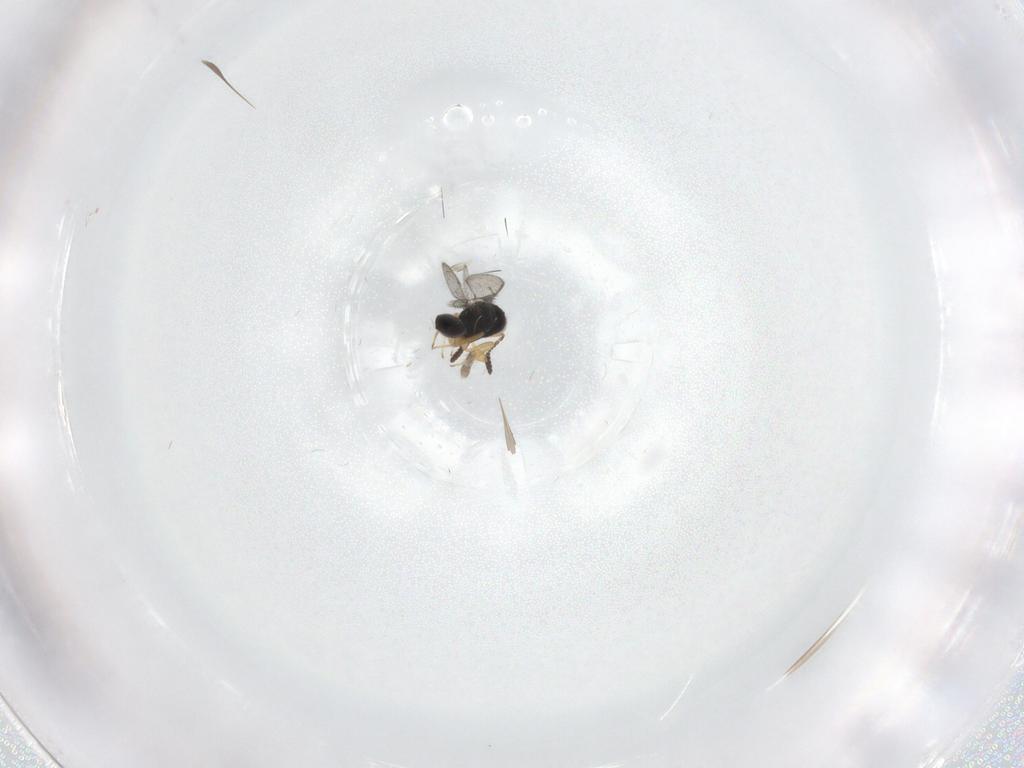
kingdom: Animalia
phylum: Arthropoda
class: Insecta
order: Hymenoptera
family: Scelionidae
